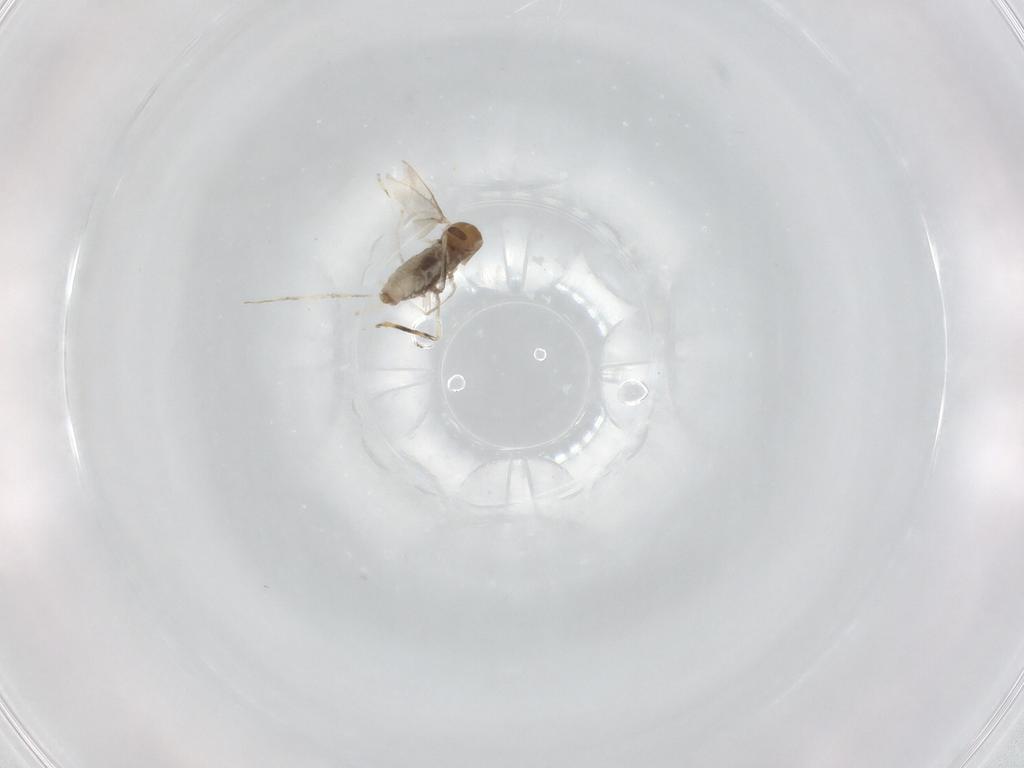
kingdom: Animalia
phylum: Arthropoda
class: Insecta
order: Diptera
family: Cecidomyiidae
